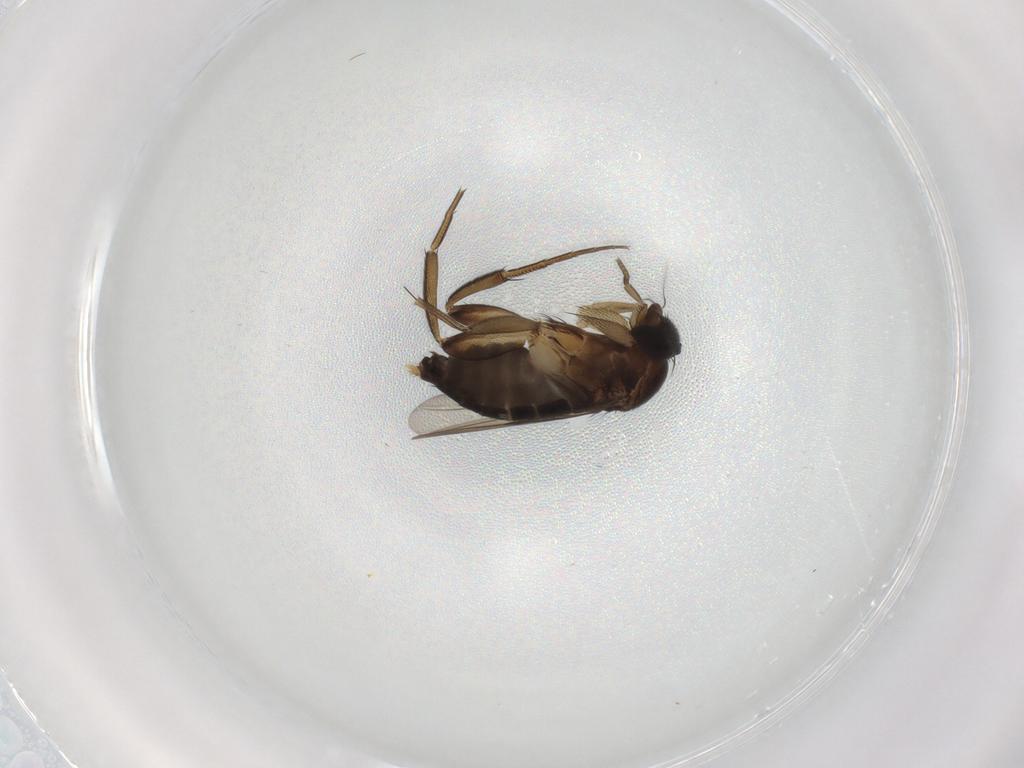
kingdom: Animalia
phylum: Arthropoda
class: Insecta
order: Diptera
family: Phoridae
